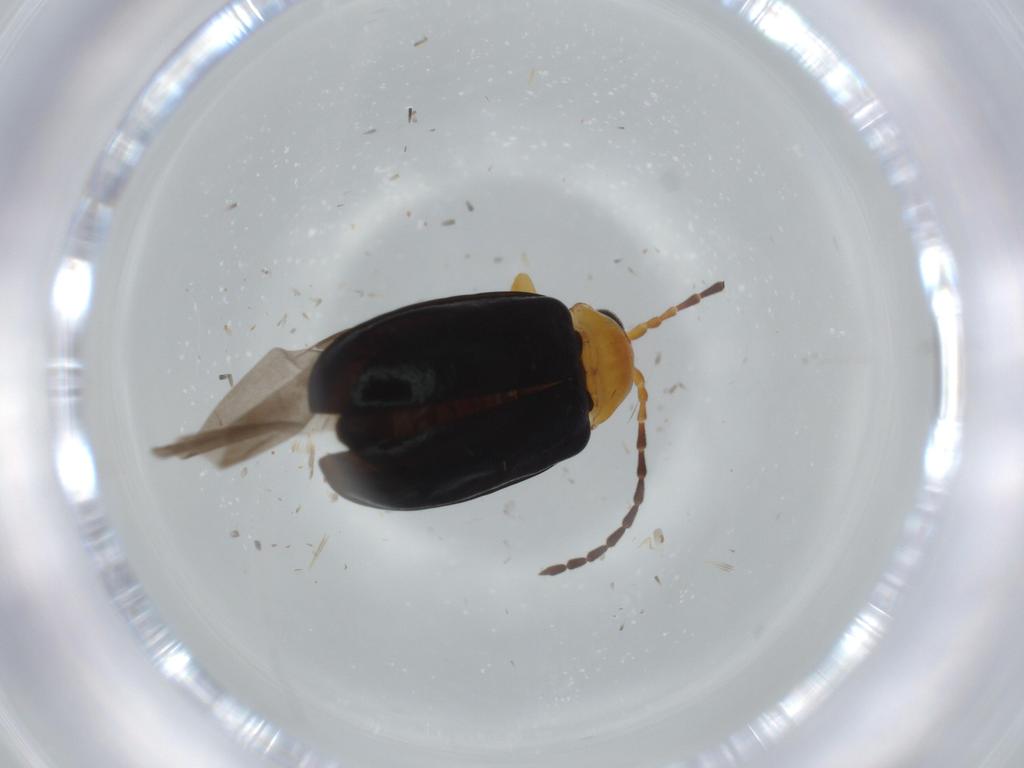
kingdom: Animalia
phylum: Arthropoda
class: Insecta
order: Coleoptera
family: Chrysomelidae
